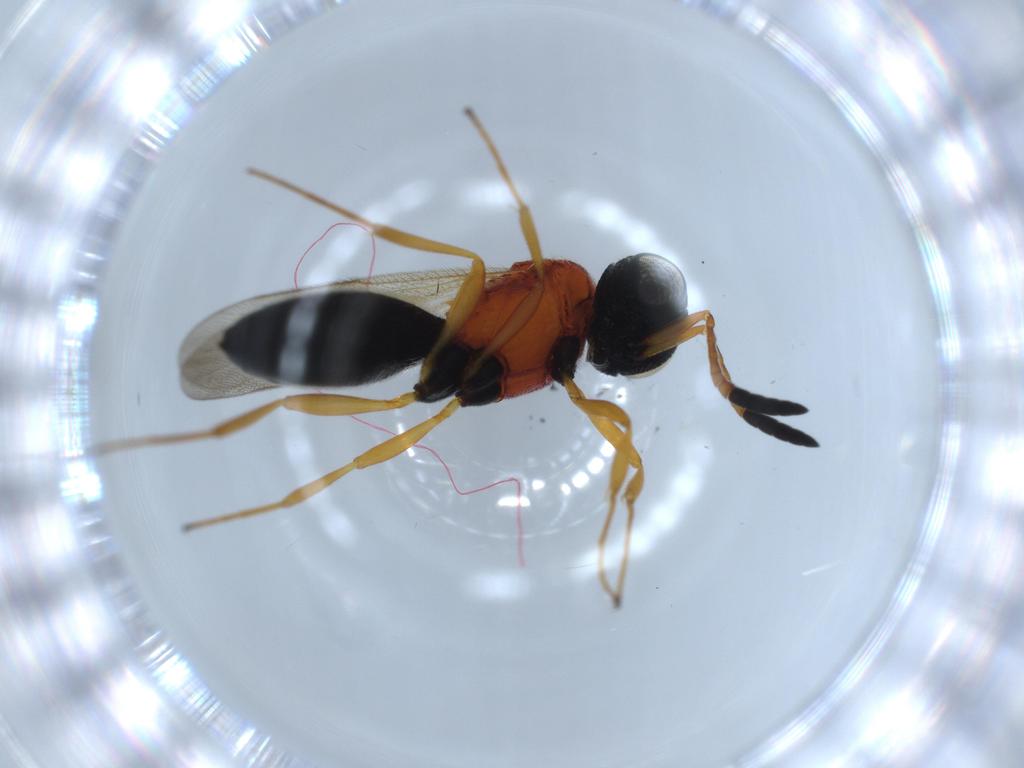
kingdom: Animalia
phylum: Arthropoda
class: Insecta
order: Hymenoptera
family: Scelionidae
